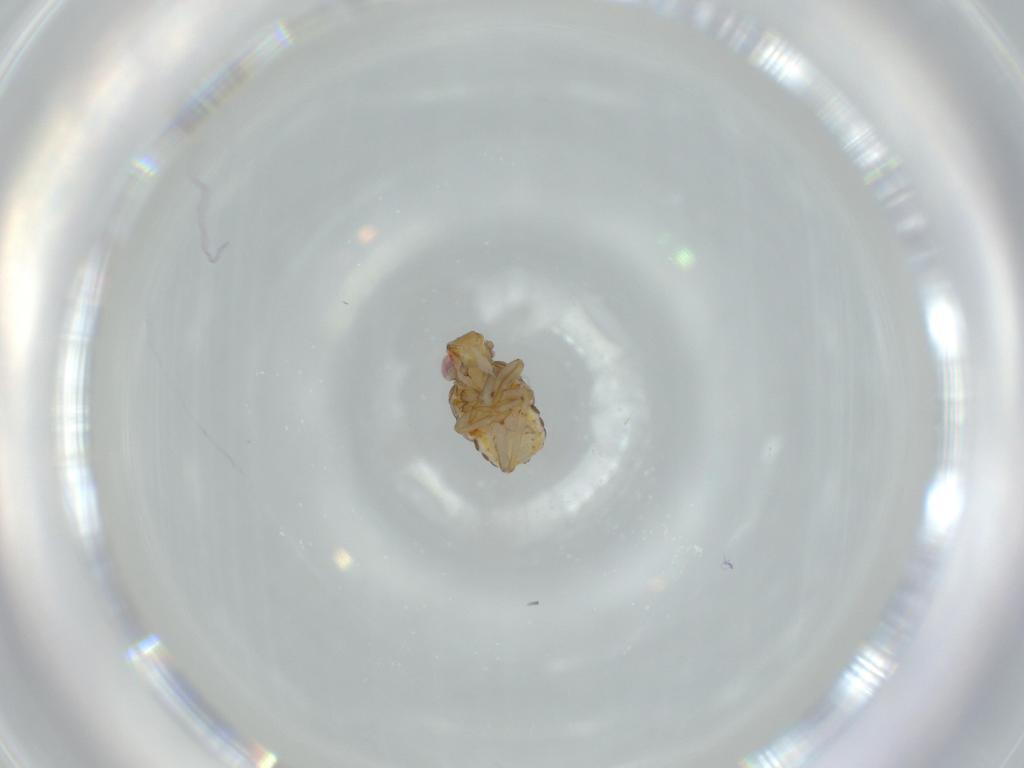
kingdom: Animalia
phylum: Arthropoda
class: Insecta
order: Hemiptera
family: Issidae
